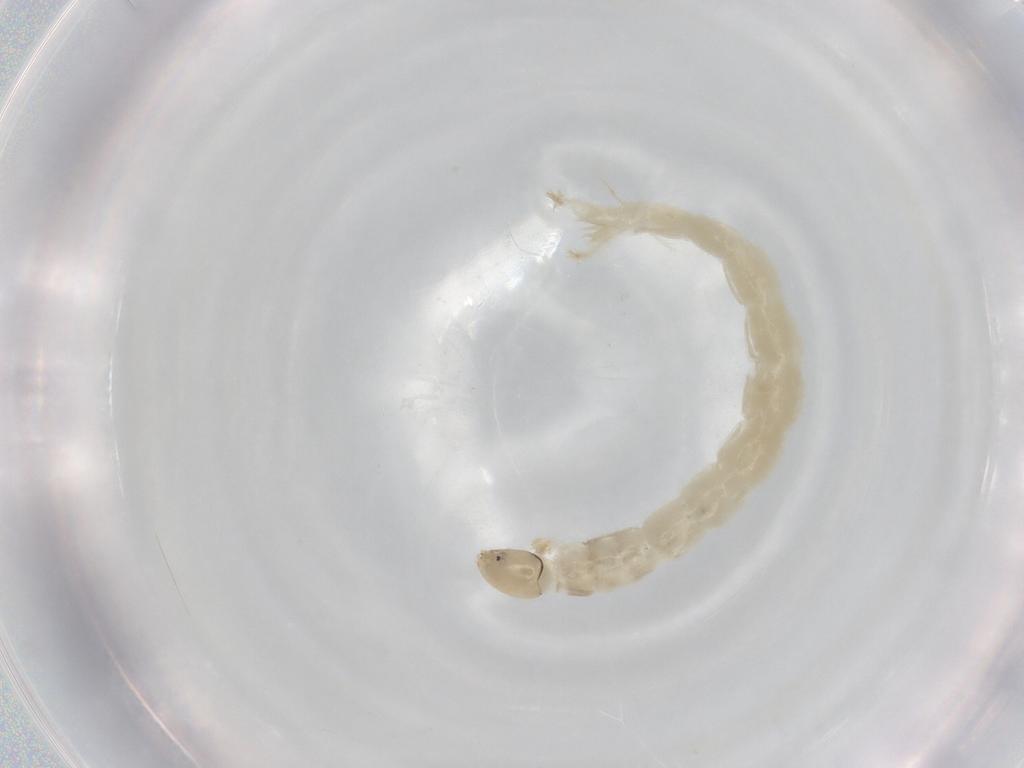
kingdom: Animalia
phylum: Arthropoda
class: Insecta
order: Diptera
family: Chironomidae
